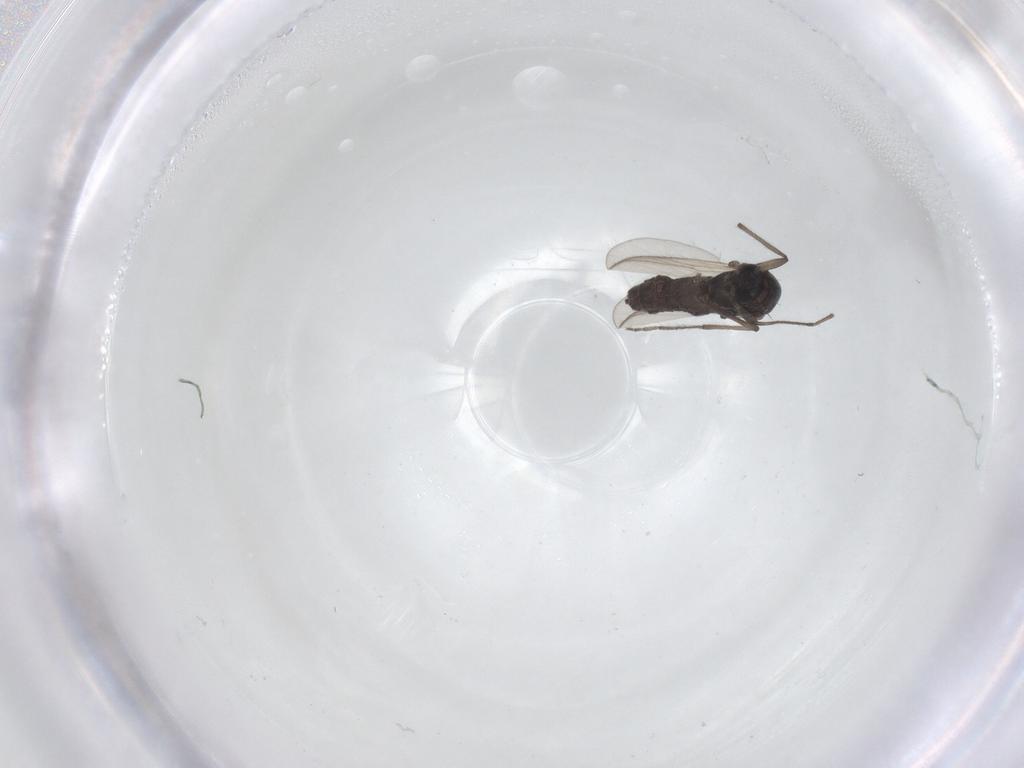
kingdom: Animalia
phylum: Arthropoda
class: Insecta
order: Diptera
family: Chironomidae
